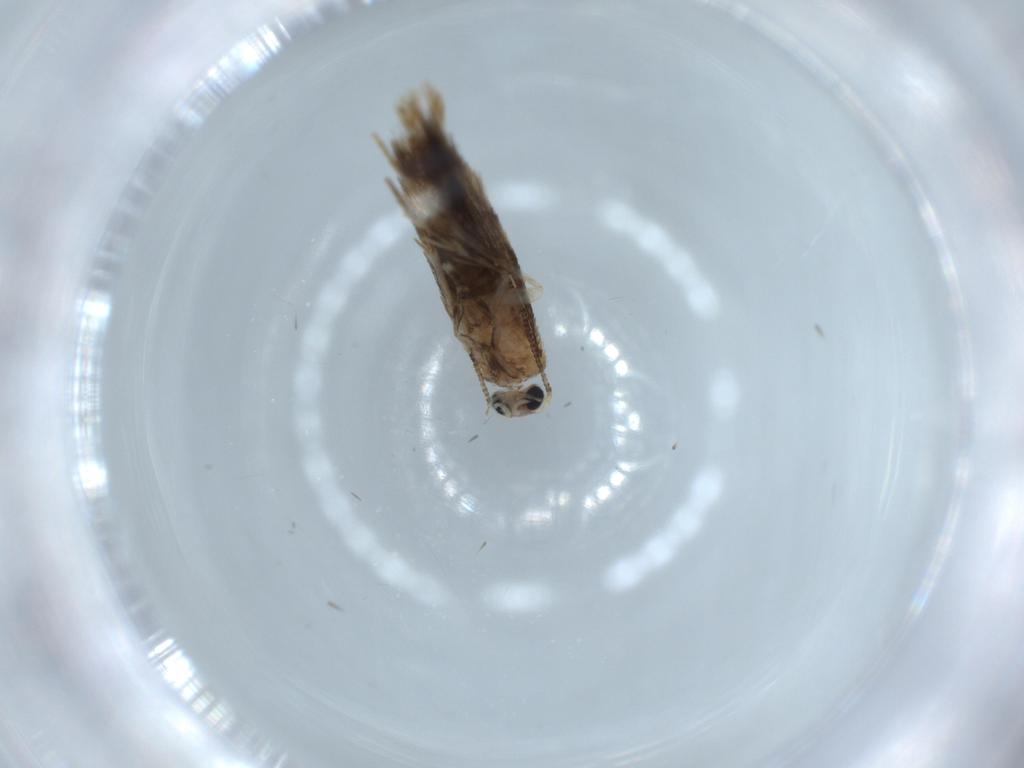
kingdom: Animalia
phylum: Arthropoda
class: Insecta
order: Lepidoptera
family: Tineidae
